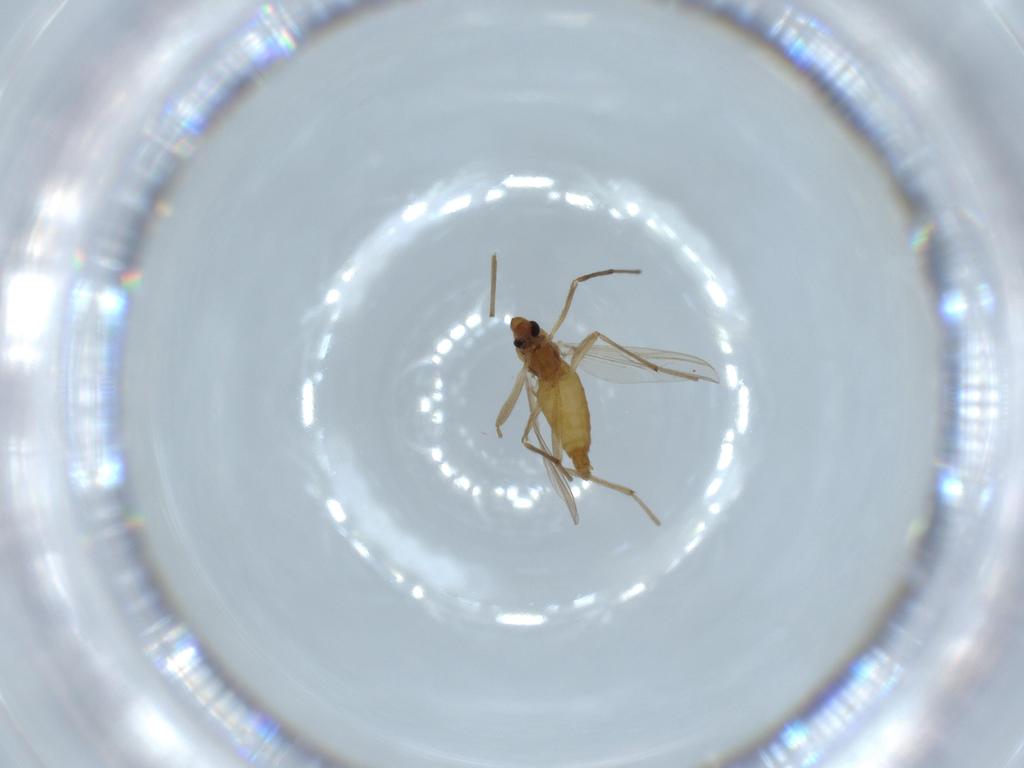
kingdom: Animalia
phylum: Arthropoda
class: Insecta
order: Diptera
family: Chironomidae
